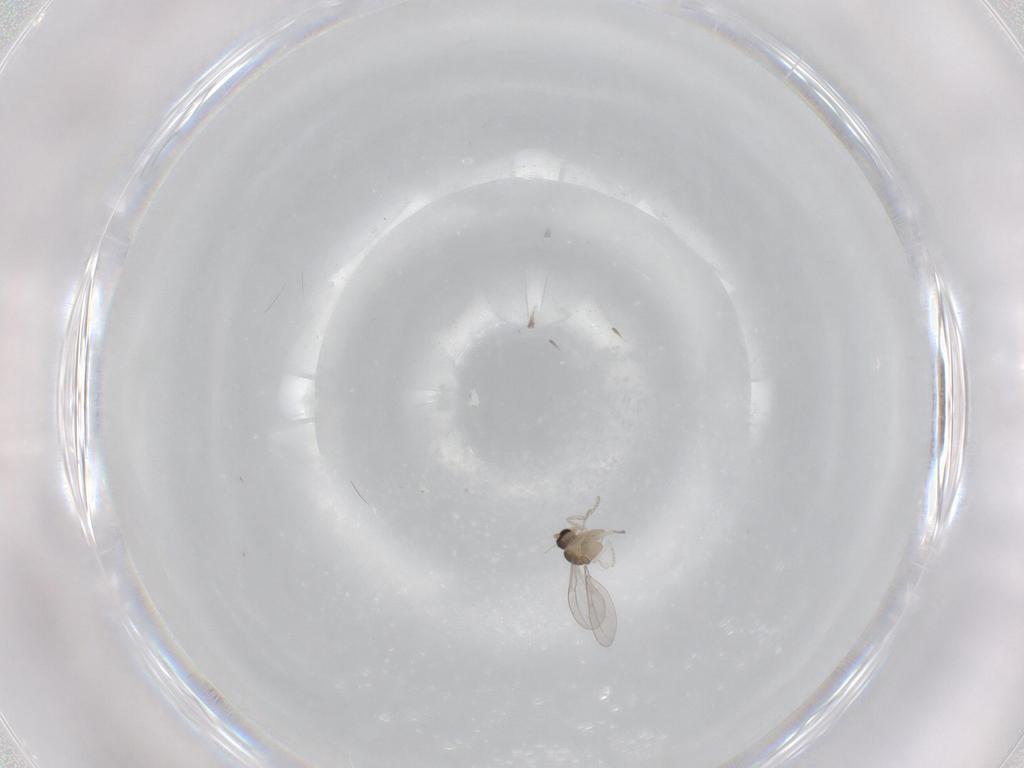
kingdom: Animalia
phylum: Arthropoda
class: Insecta
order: Diptera
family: Cecidomyiidae
